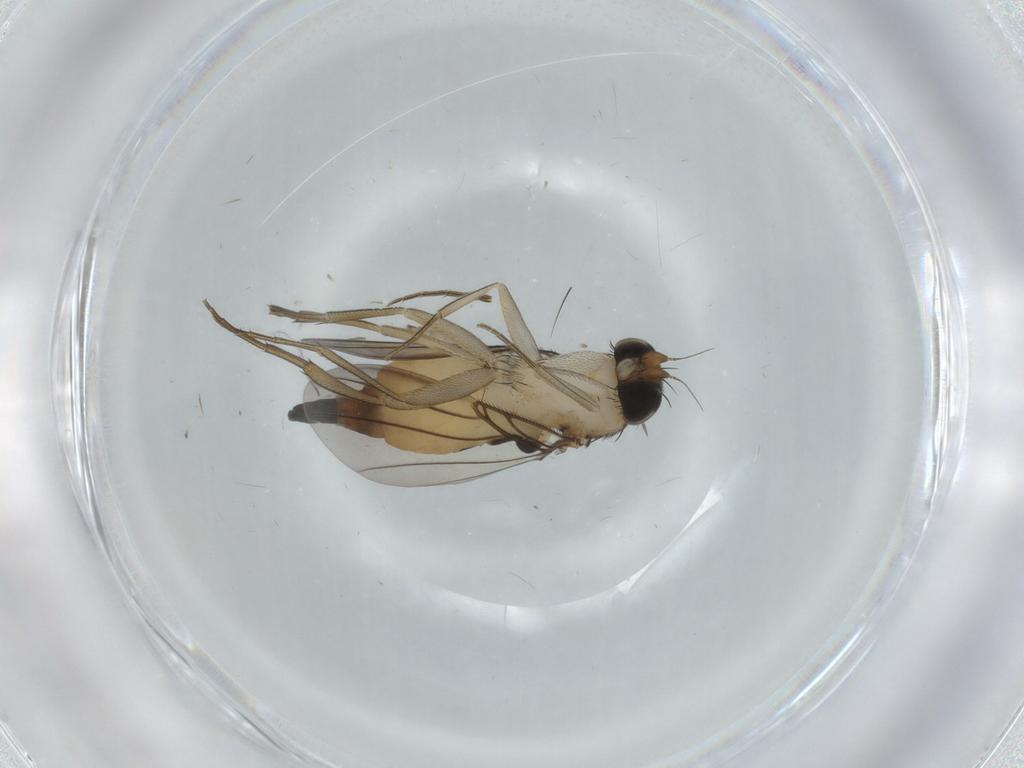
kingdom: Animalia
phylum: Arthropoda
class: Insecta
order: Diptera
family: Phoridae
